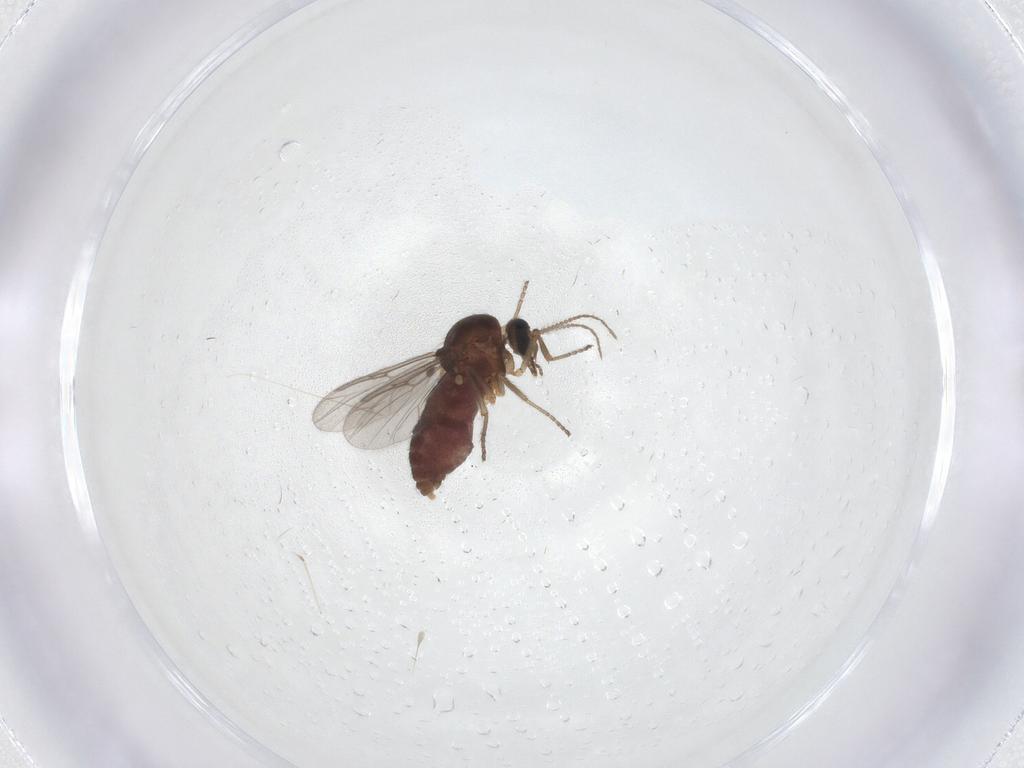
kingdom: Animalia
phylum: Arthropoda
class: Insecta
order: Diptera
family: Ceratopogonidae
